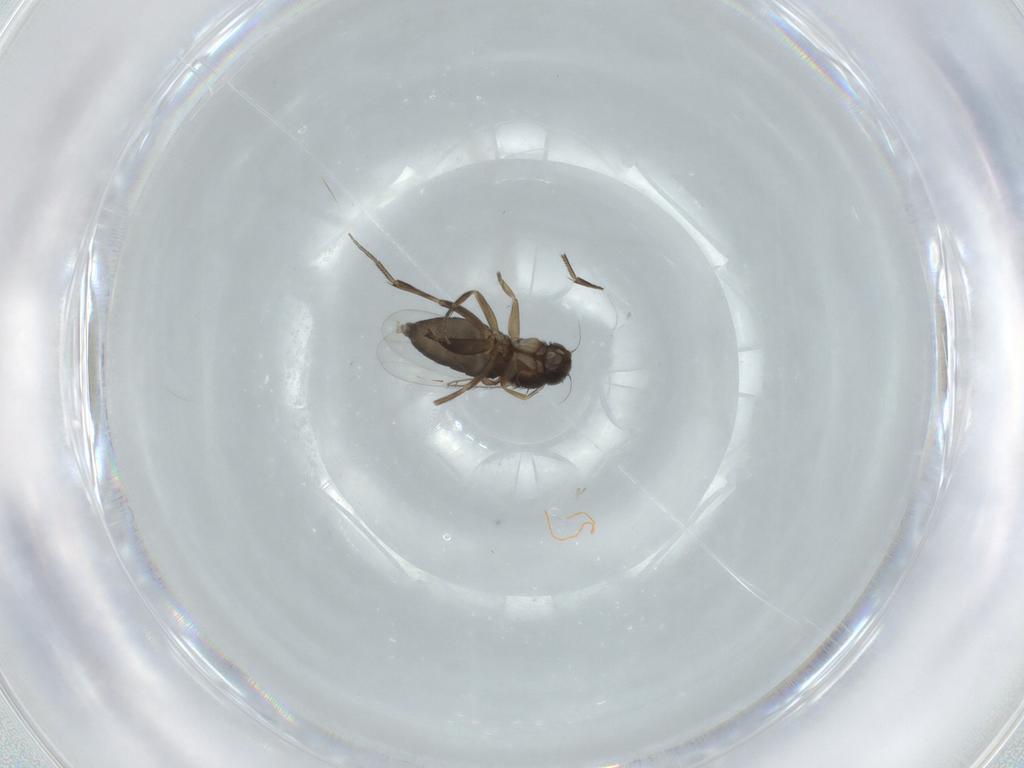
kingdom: Animalia
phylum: Arthropoda
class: Insecta
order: Diptera
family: Phoridae
